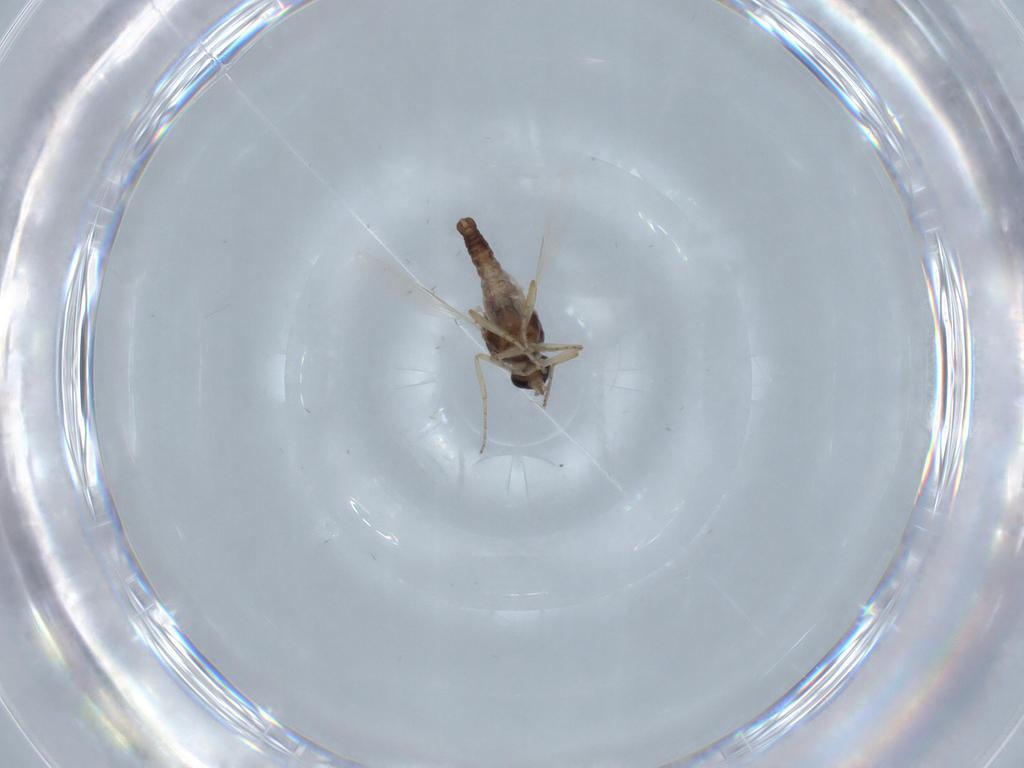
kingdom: Animalia
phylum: Arthropoda
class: Insecta
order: Diptera
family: Ceratopogonidae
